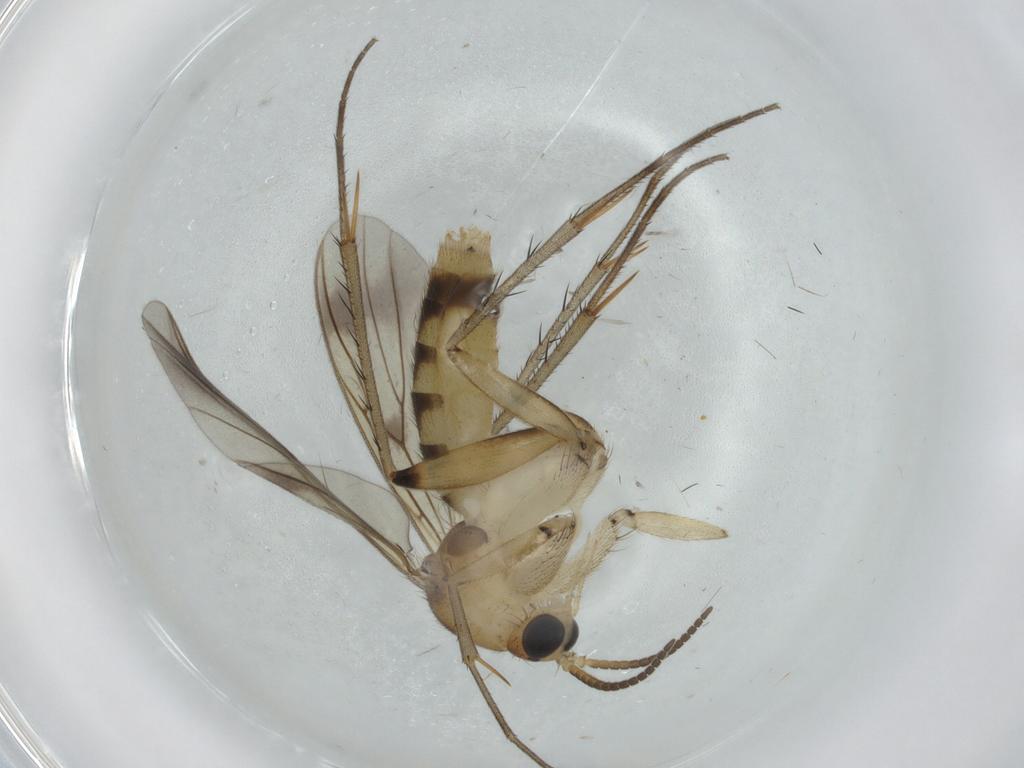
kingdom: Animalia
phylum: Arthropoda
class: Insecta
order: Diptera
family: Mycetophilidae
